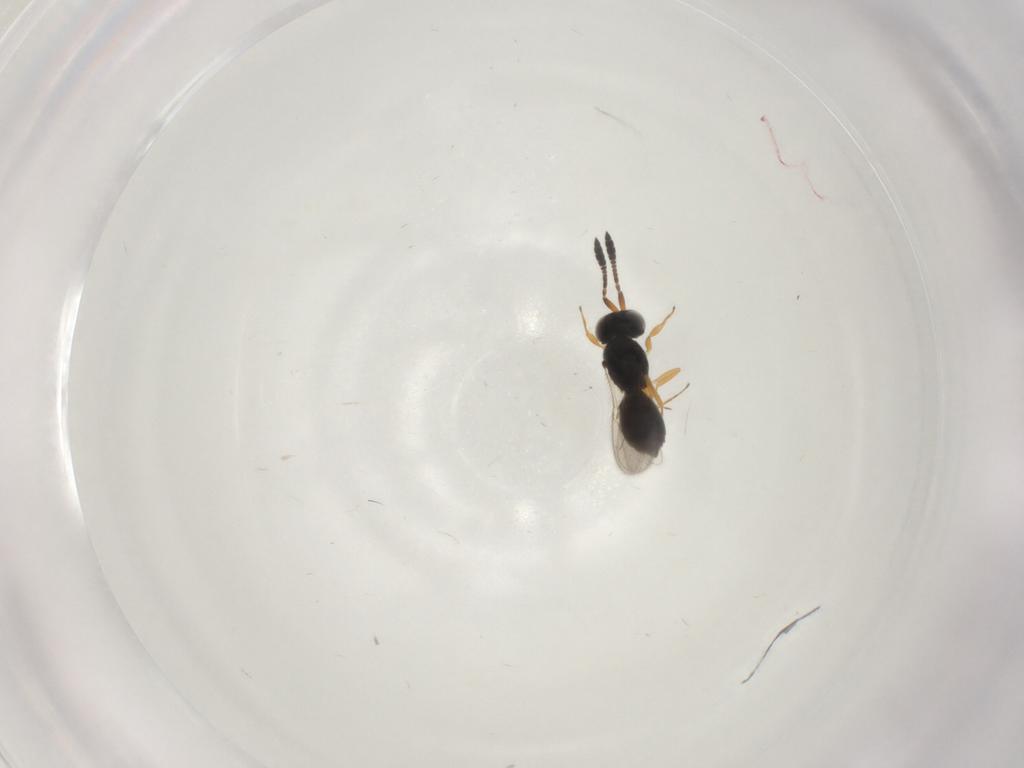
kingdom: Animalia
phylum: Arthropoda
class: Insecta
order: Hymenoptera
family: Scelionidae
